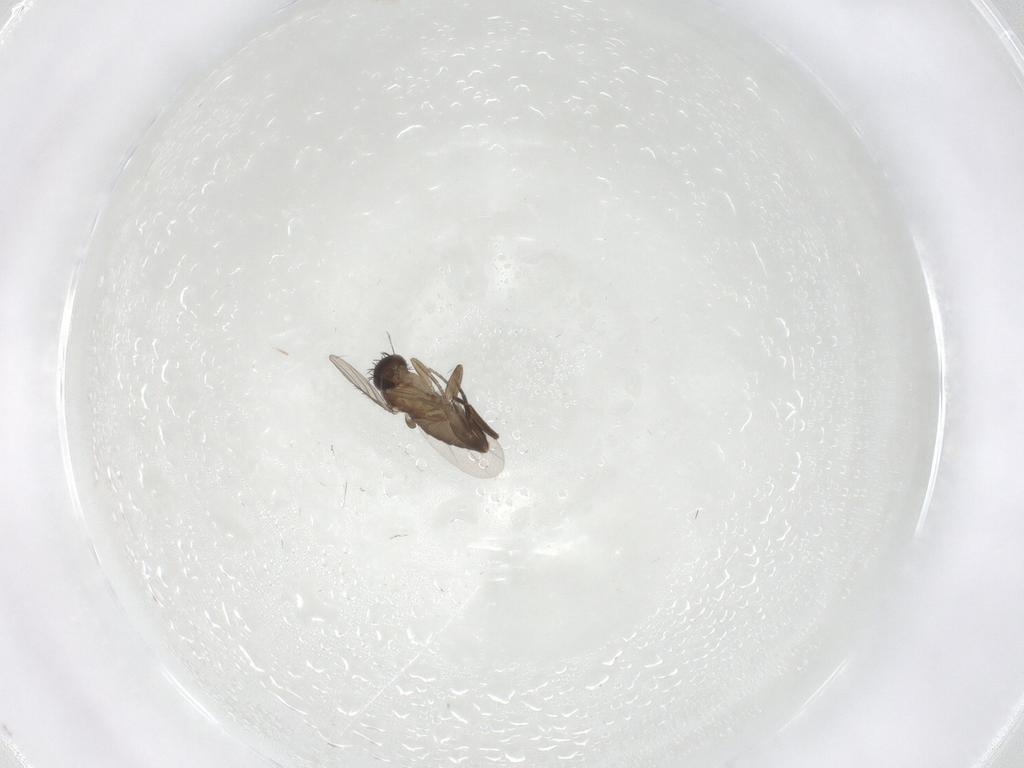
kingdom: Animalia
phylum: Arthropoda
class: Insecta
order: Diptera
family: Phoridae
